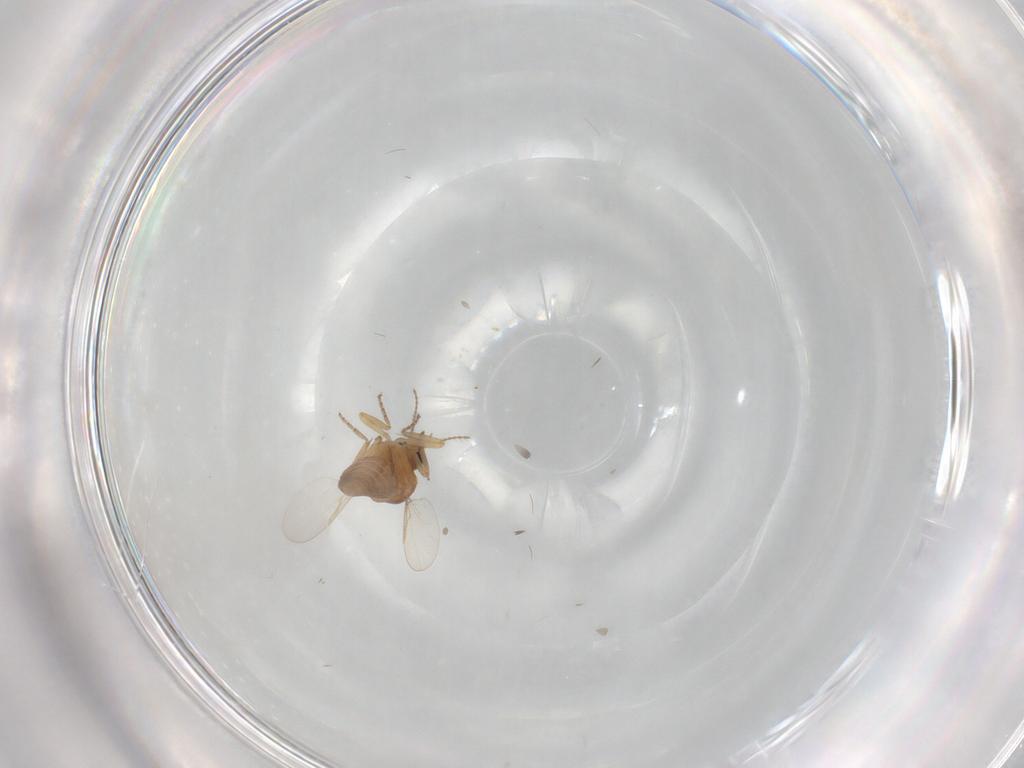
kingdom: Animalia
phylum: Arthropoda
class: Insecta
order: Diptera
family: Ceratopogonidae
